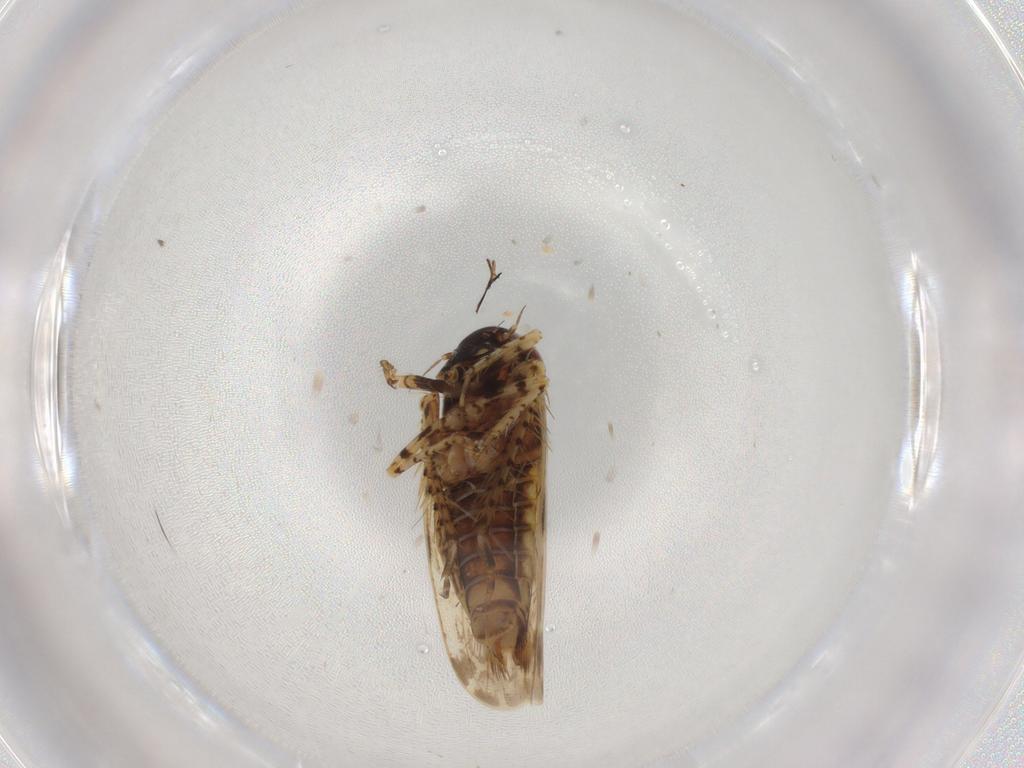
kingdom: Animalia
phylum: Arthropoda
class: Insecta
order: Hemiptera
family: Cicadellidae
